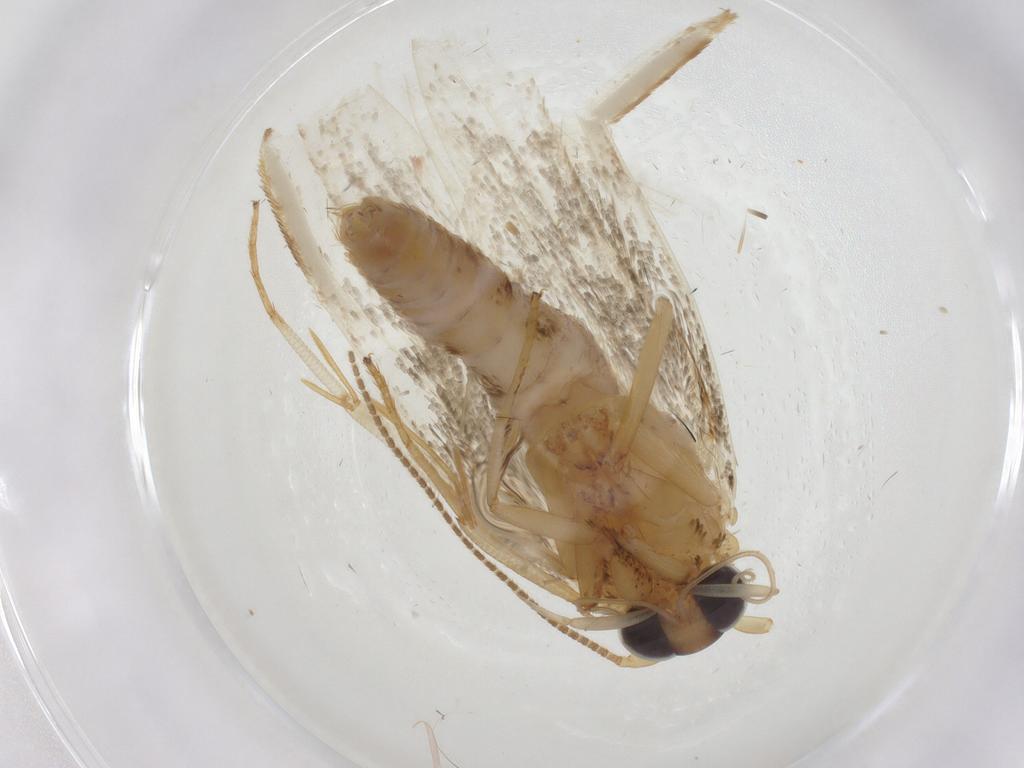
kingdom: Animalia
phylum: Arthropoda
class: Insecta
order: Lepidoptera
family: Blastobasidae
